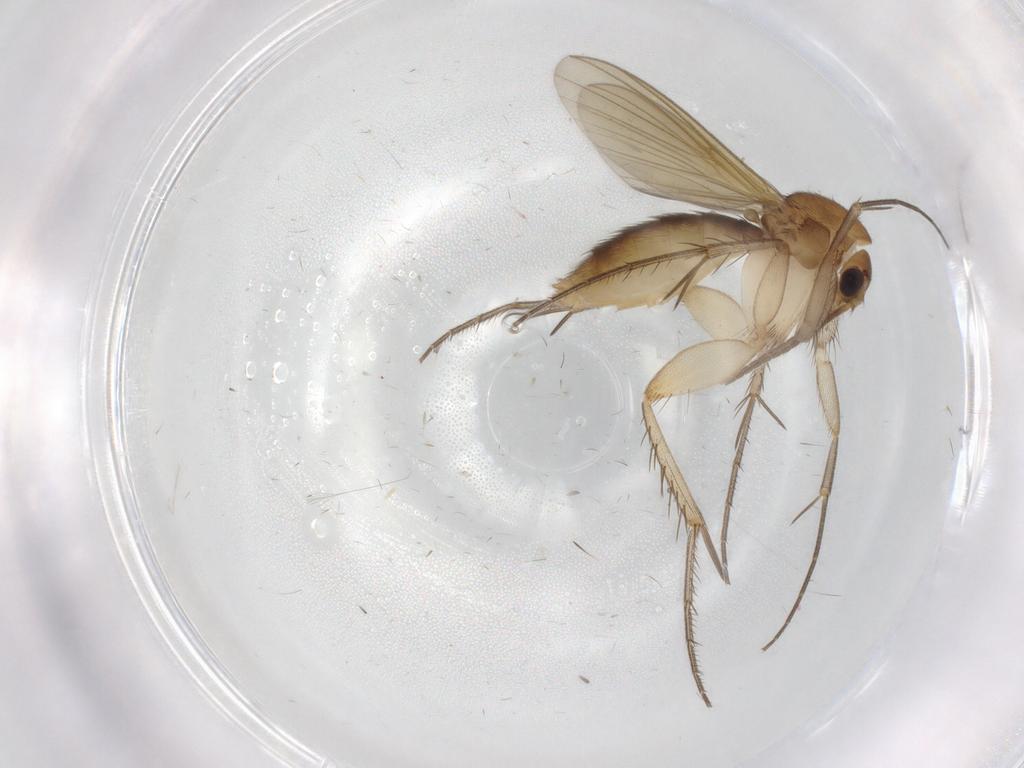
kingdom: Animalia
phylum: Arthropoda
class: Insecta
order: Diptera
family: Mycetophilidae
